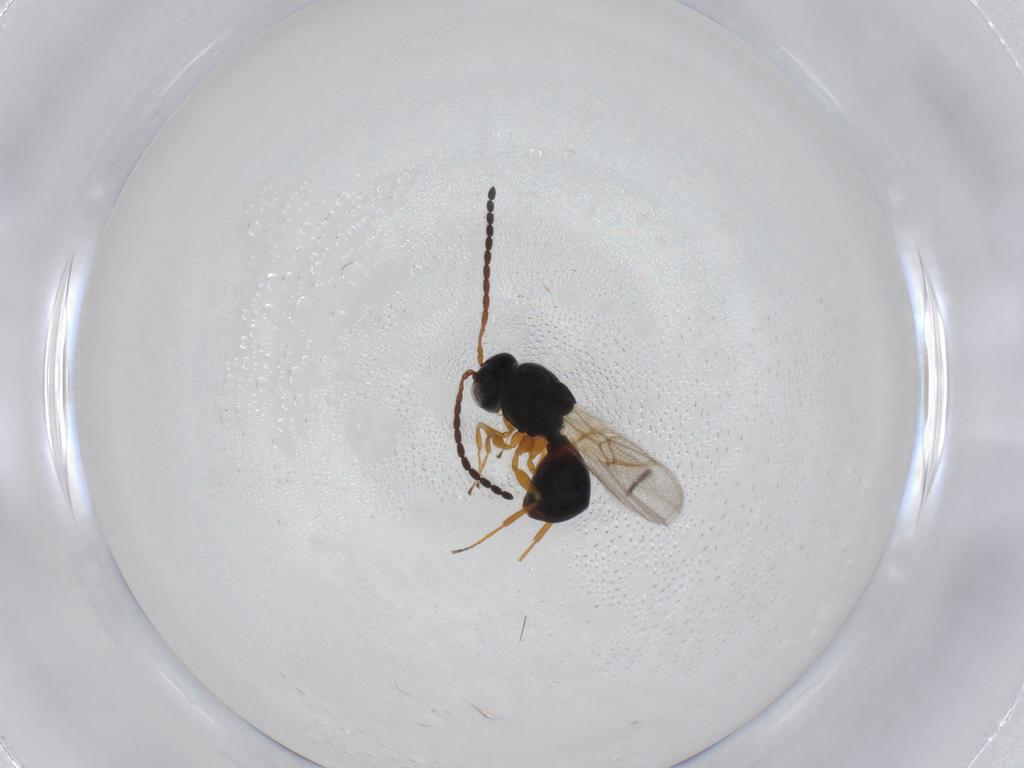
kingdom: Animalia
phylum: Arthropoda
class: Insecta
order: Hymenoptera
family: Figitidae
